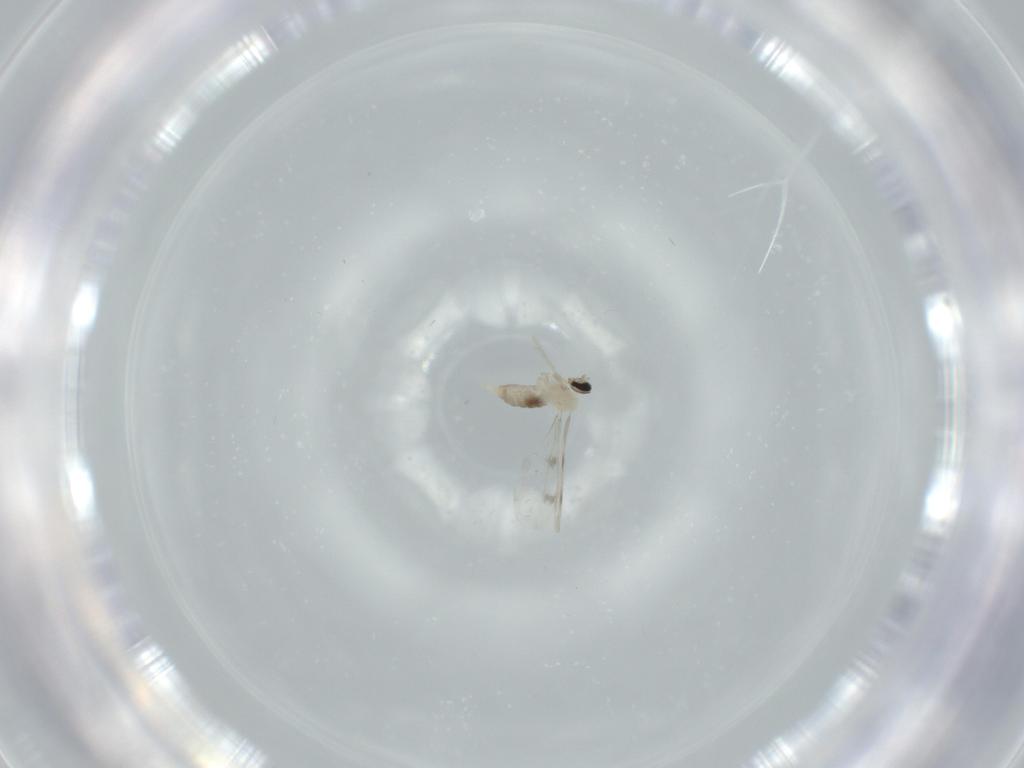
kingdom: Animalia
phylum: Arthropoda
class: Insecta
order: Diptera
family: Cecidomyiidae
